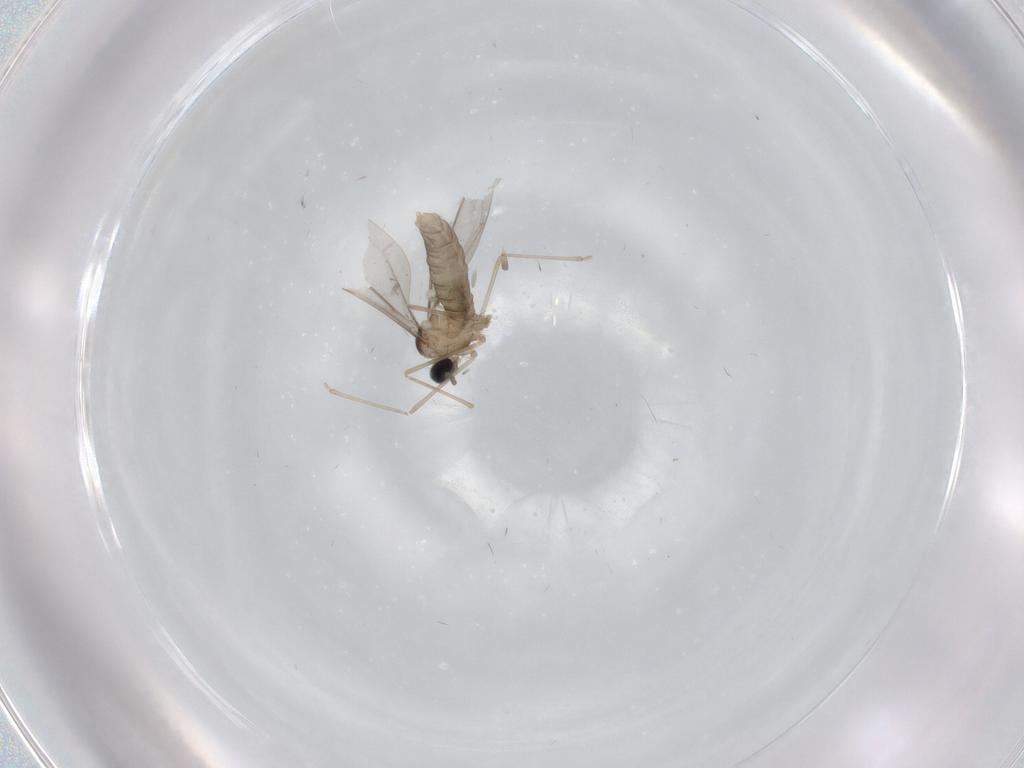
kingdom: Animalia
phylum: Arthropoda
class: Insecta
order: Diptera
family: Cecidomyiidae
